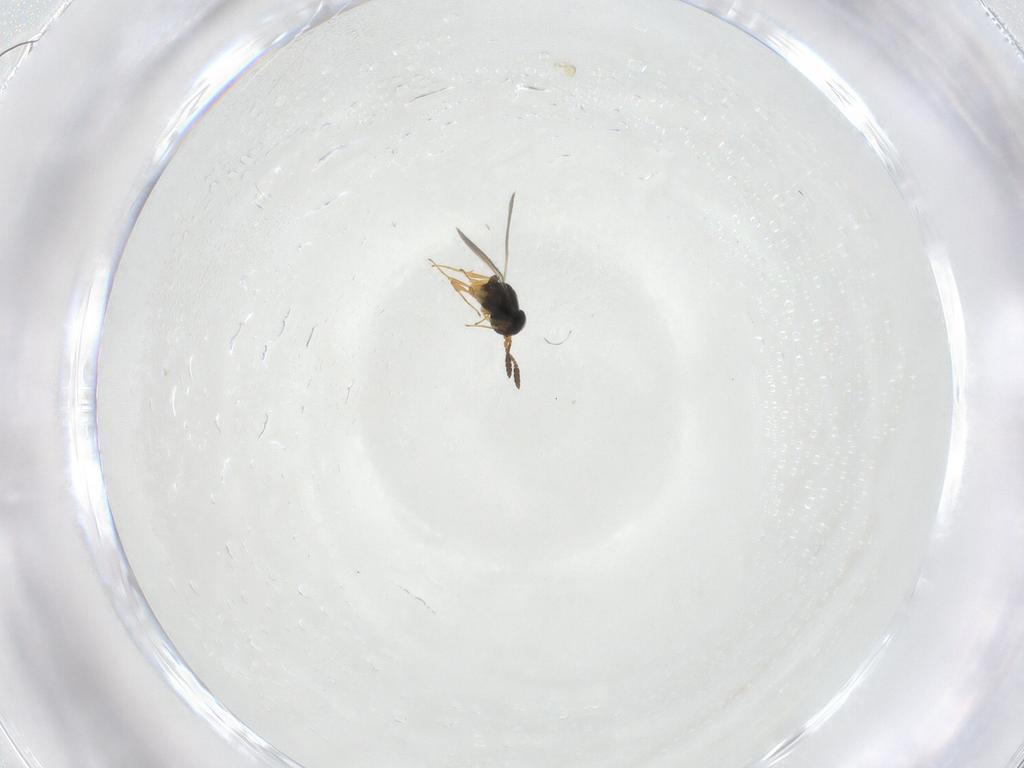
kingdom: Animalia
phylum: Arthropoda
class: Insecta
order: Hymenoptera
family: Scelionidae
